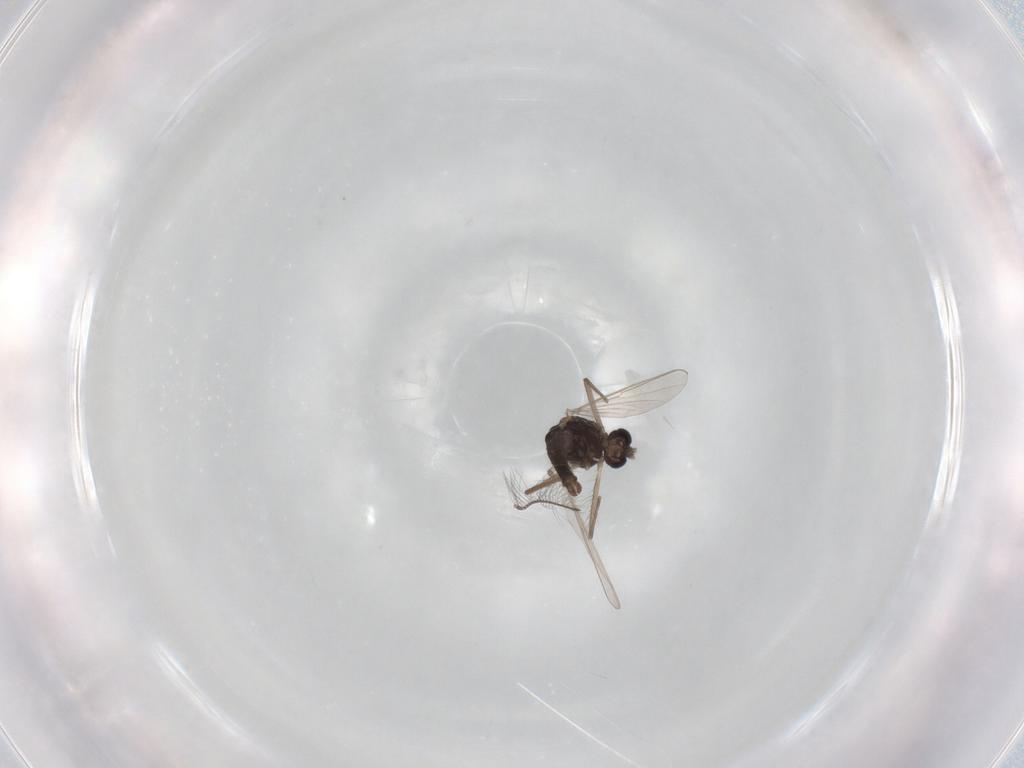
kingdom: Animalia
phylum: Arthropoda
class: Insecta
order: Diptera
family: Chironomidae
